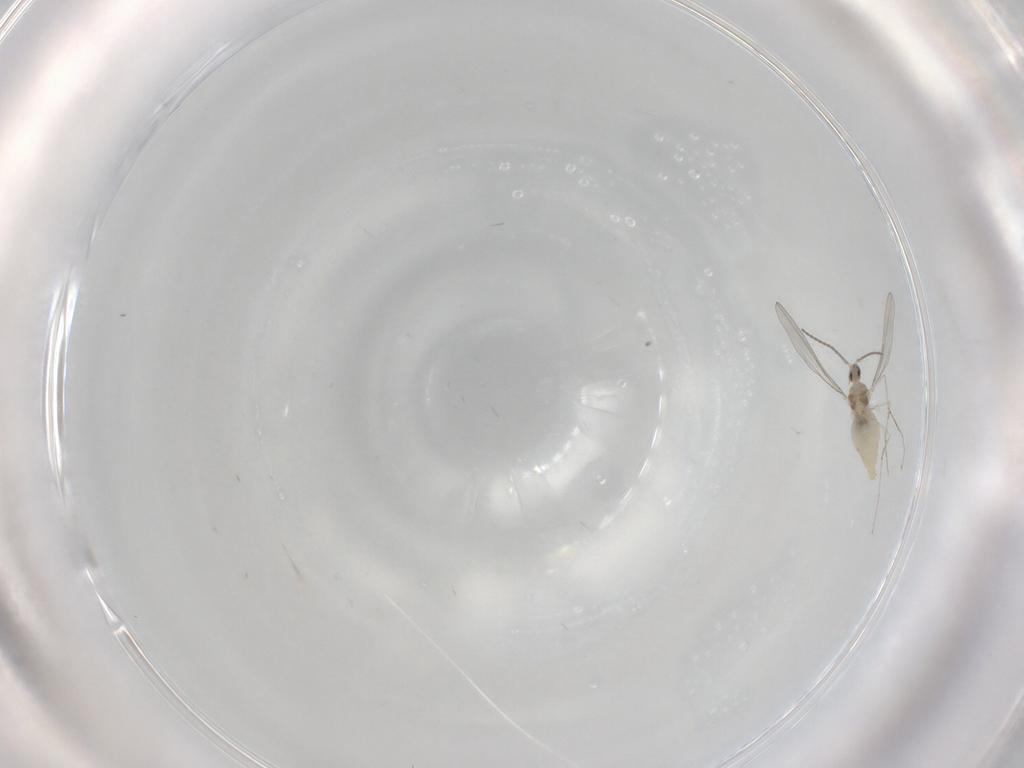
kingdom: Animalia
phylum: Arthropoda
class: Insecta
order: Diptera
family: Cecidomyiidae
